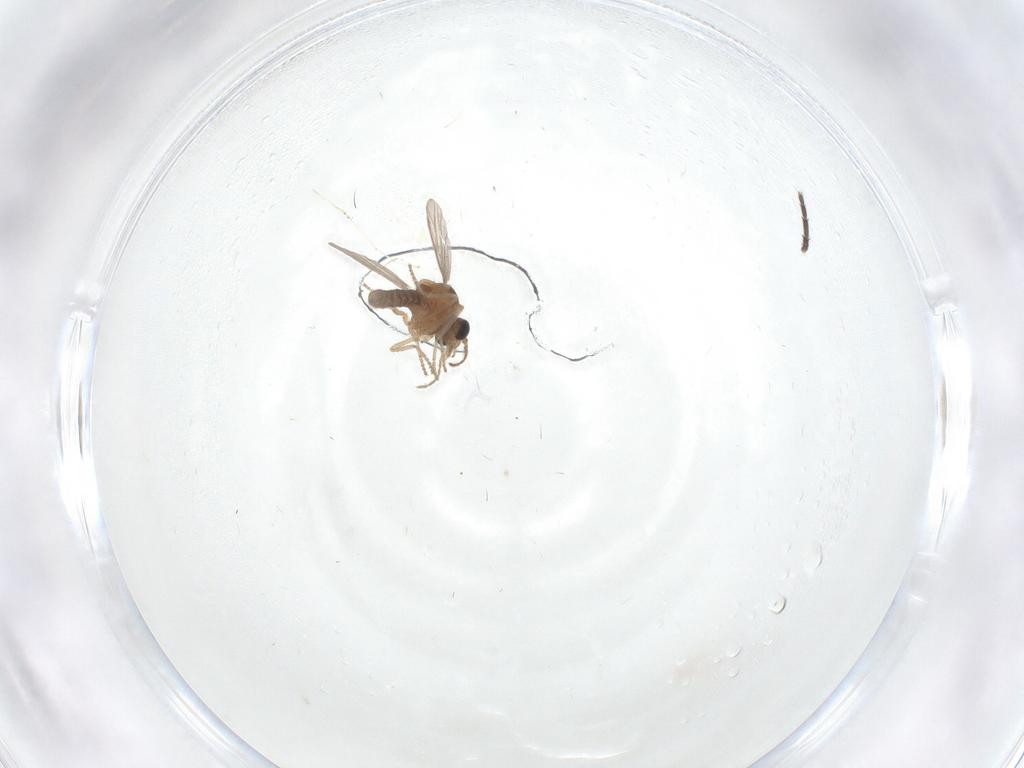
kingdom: Animalia
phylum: Arthropoda
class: Insecta
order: Diptera
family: Ceratopogonidae
